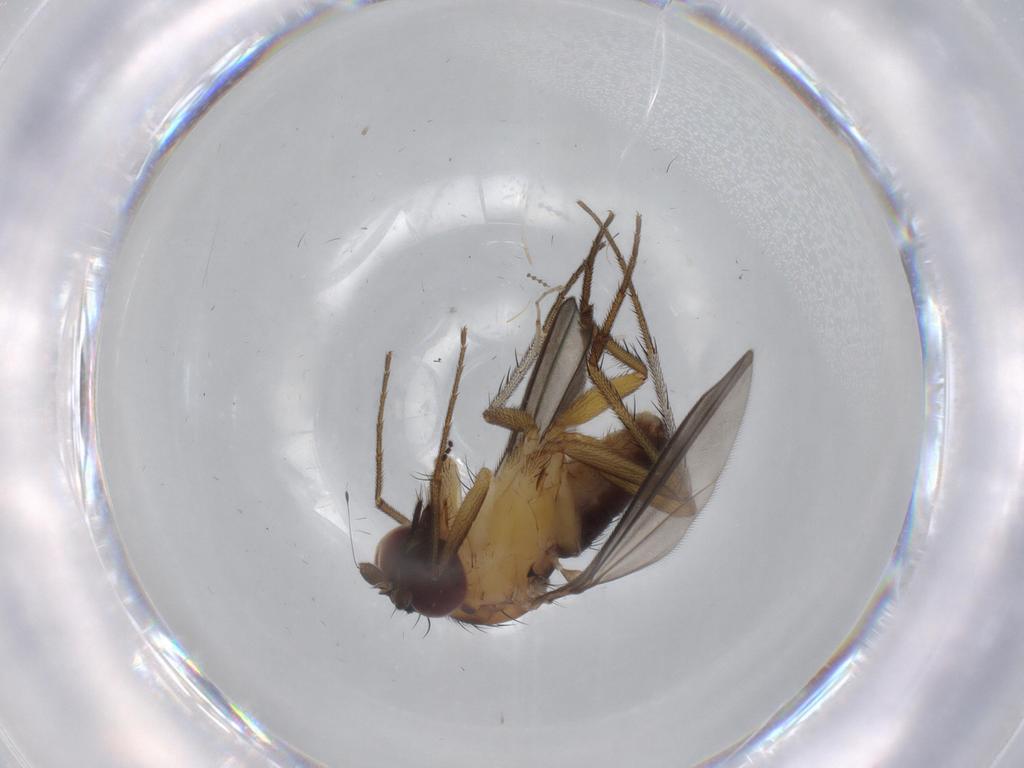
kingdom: Animalia
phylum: Arthropoda
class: Insecta
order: Diptera
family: Dolichopodidae
